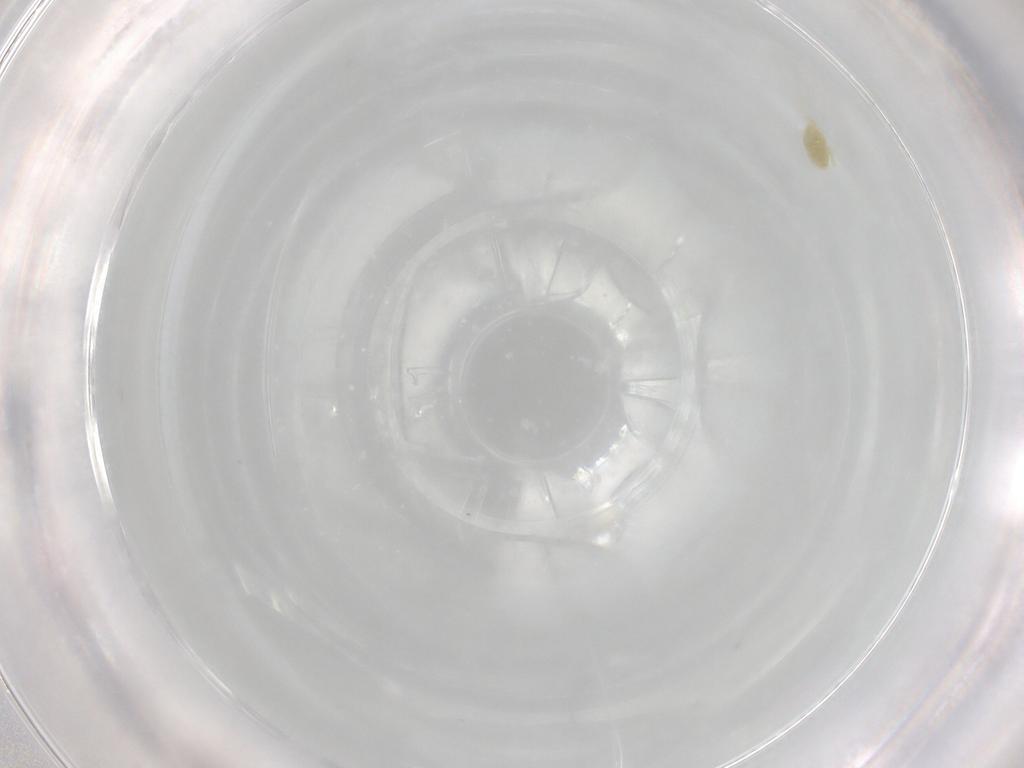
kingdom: Animalia
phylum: Arthropoda
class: Arachnida
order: Trombidiformes
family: Eupodidae
